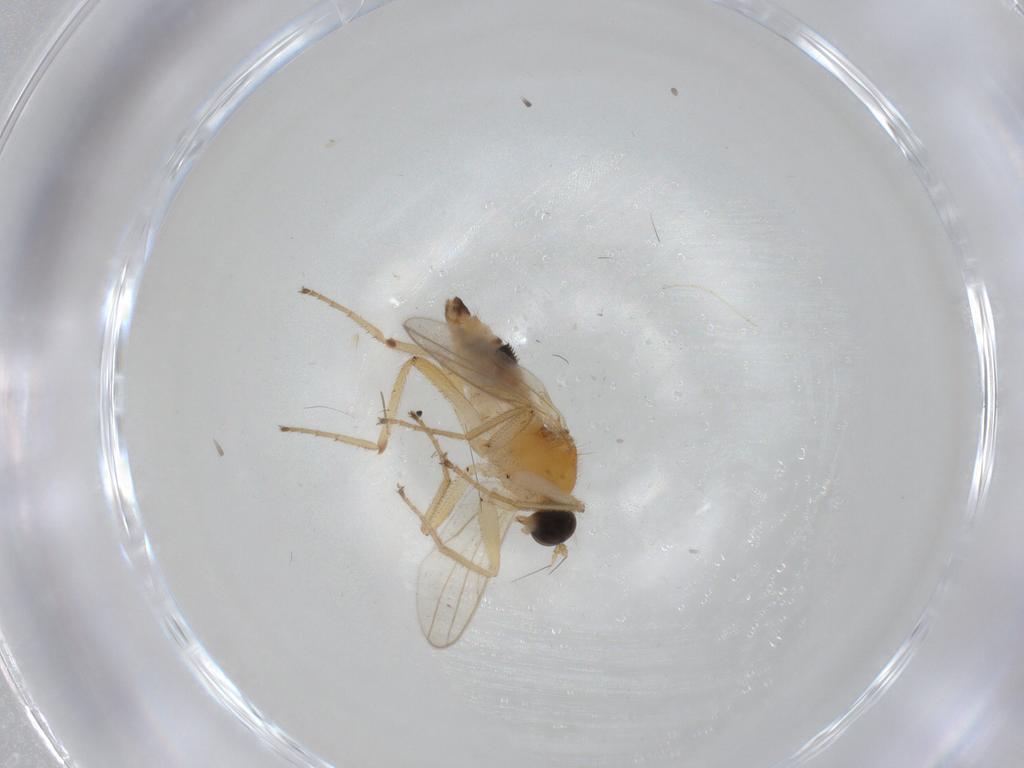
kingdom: Animalia
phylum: Arthropoda
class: Insecta
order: Diptera
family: Hybotidae
